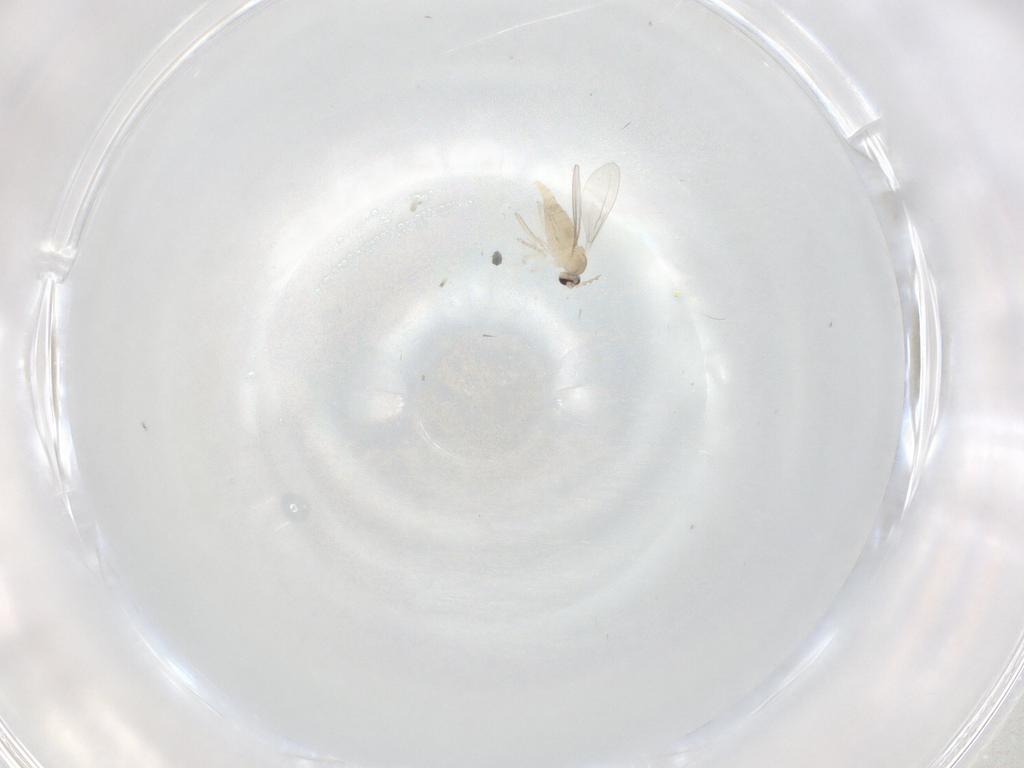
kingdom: Animalia
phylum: Arthropoda
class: Insecta
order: Diptera
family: Cecidomyiidae
